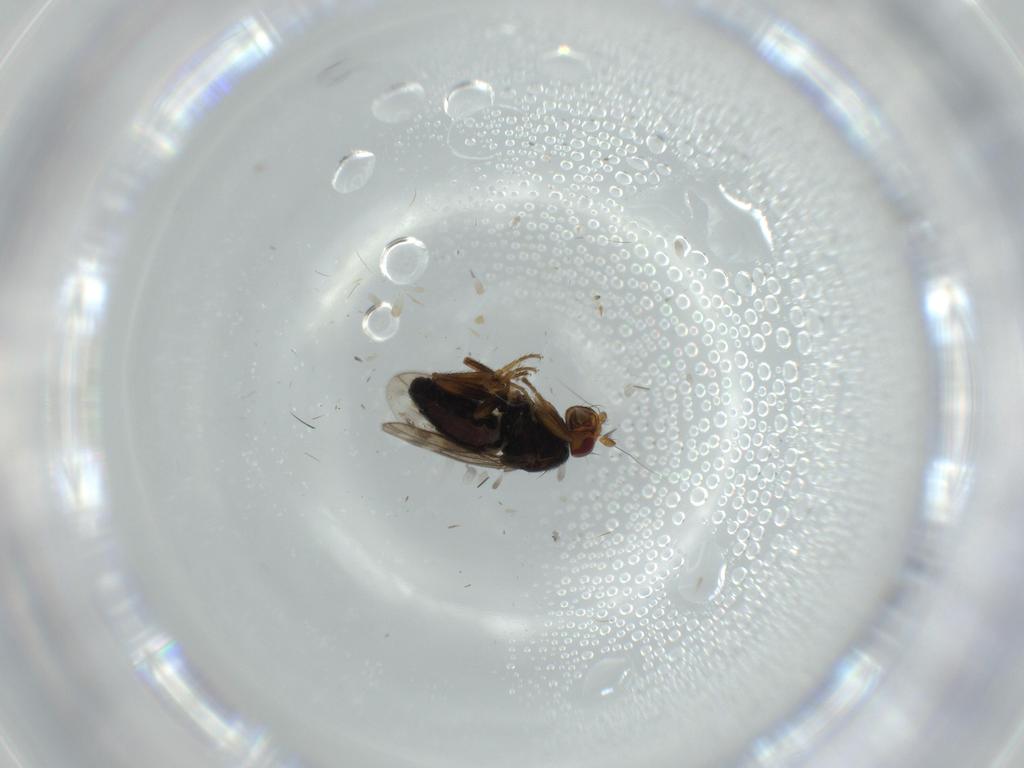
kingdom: Animalia
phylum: Arthropoda
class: Insecta
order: Diptera
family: Sphaeroceridae
